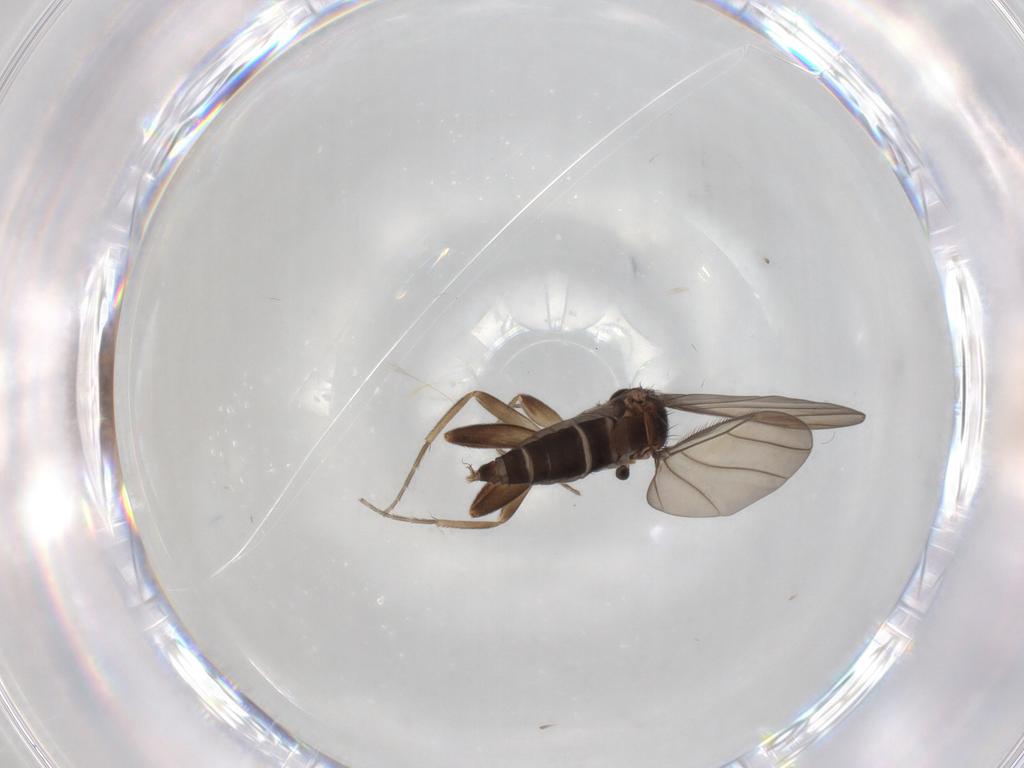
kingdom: Animalia
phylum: Arthropoda
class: Insecta
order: Diptera
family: Phoridae
